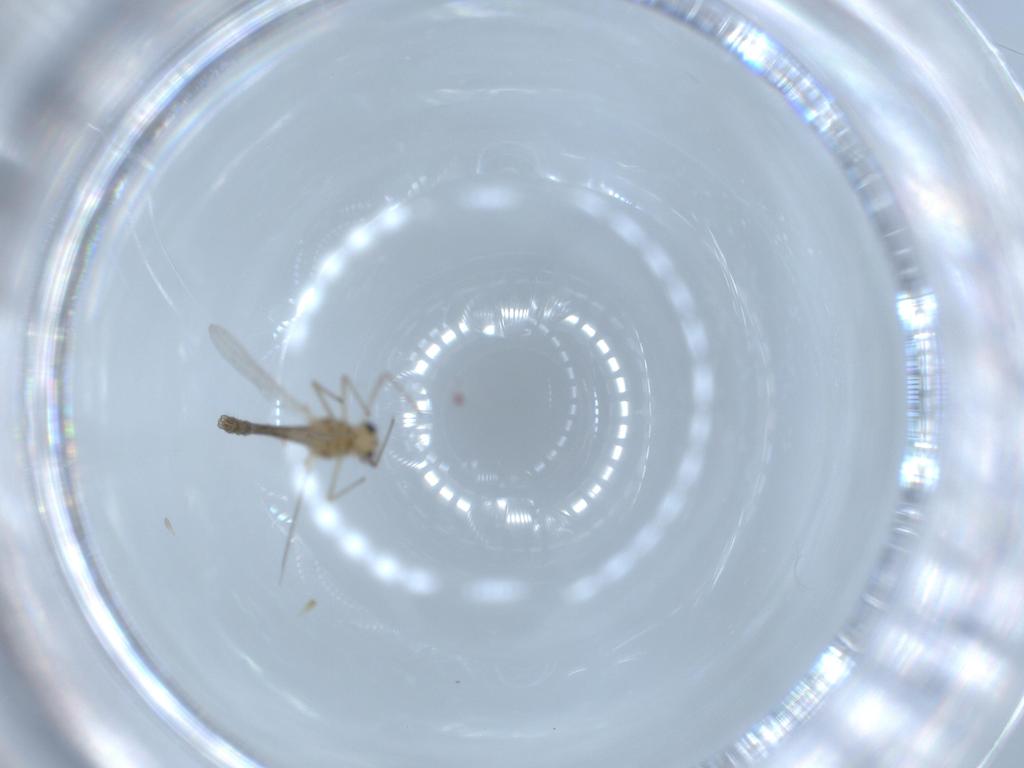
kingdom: Animalia
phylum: Arthropoda
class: Insecta
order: Diptera
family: Chironomidae
